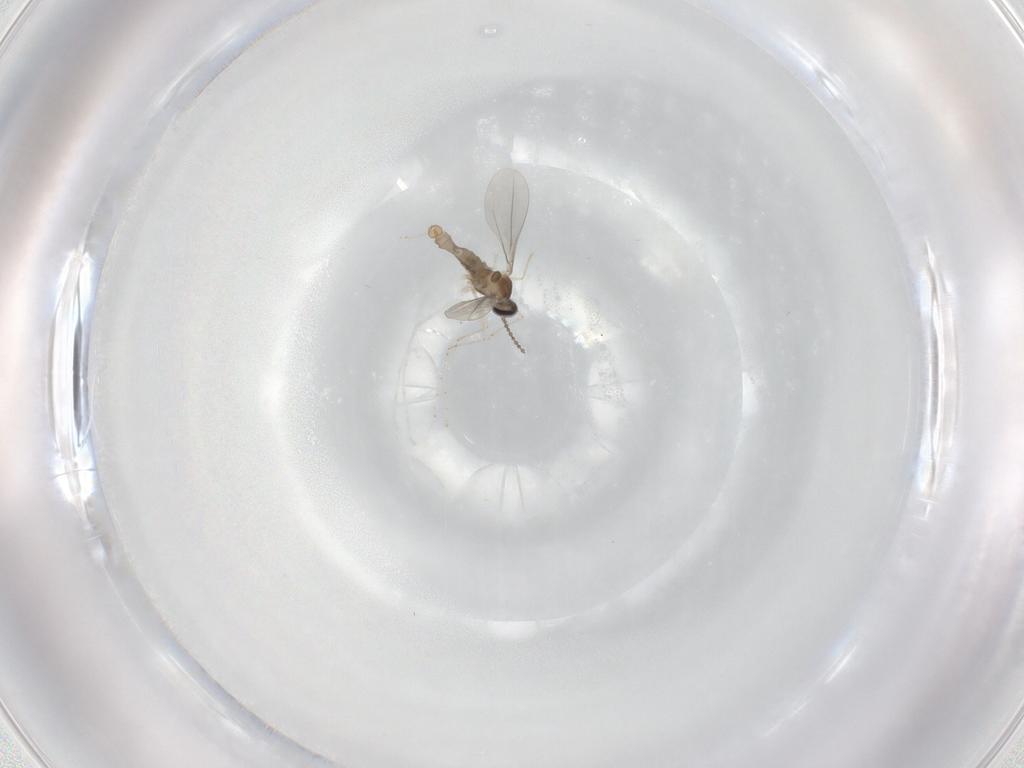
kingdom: Animalia
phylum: Arthropoda
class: Insecta
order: Diptera
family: Cecidomyiidae
